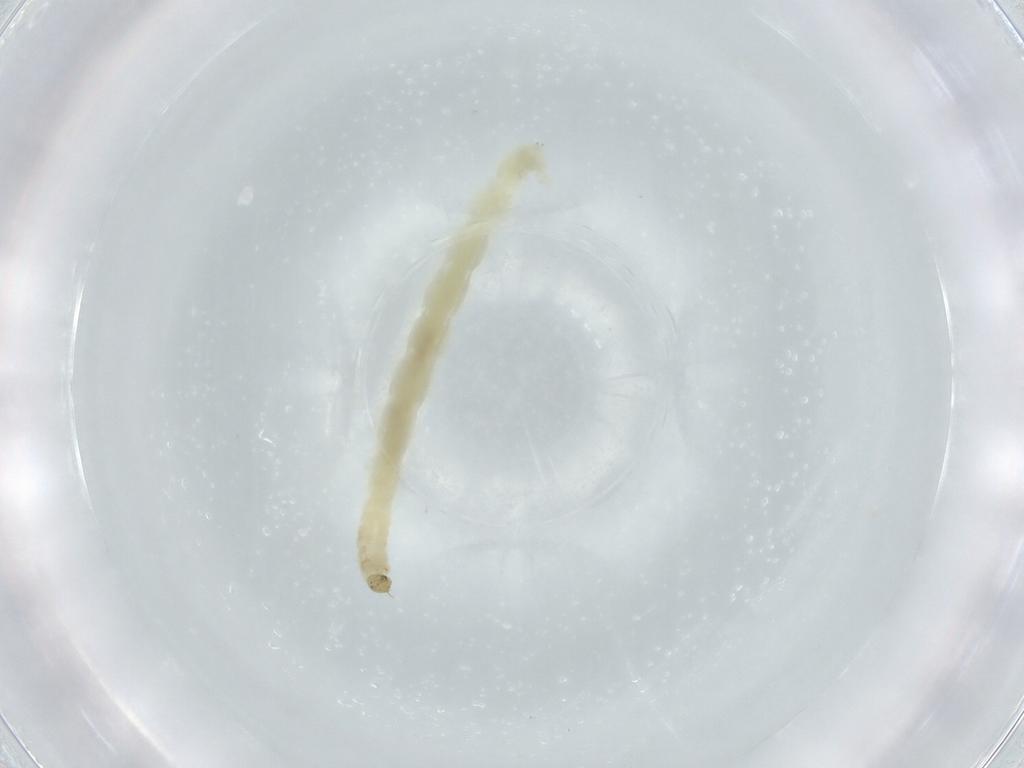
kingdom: Animalia
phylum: Arthropoda
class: Insecta
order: Diptera
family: Chironomidae
